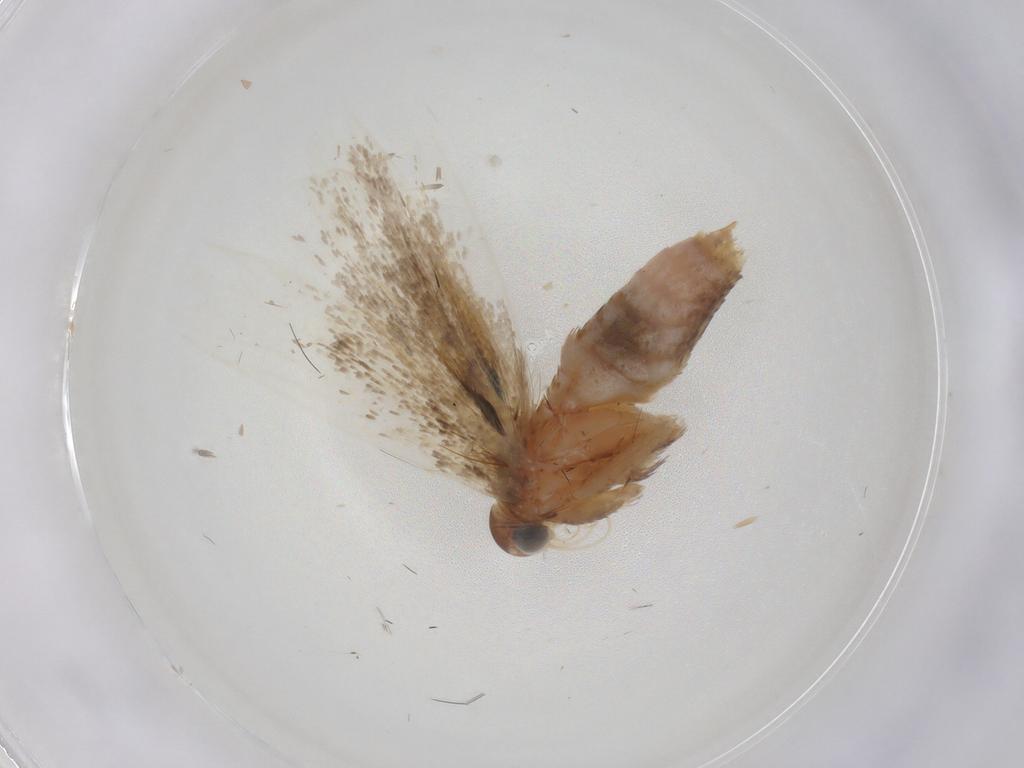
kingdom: Animalia
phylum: Arthropoda
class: Insecta
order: Lepidoptera
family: Gelechiidae
